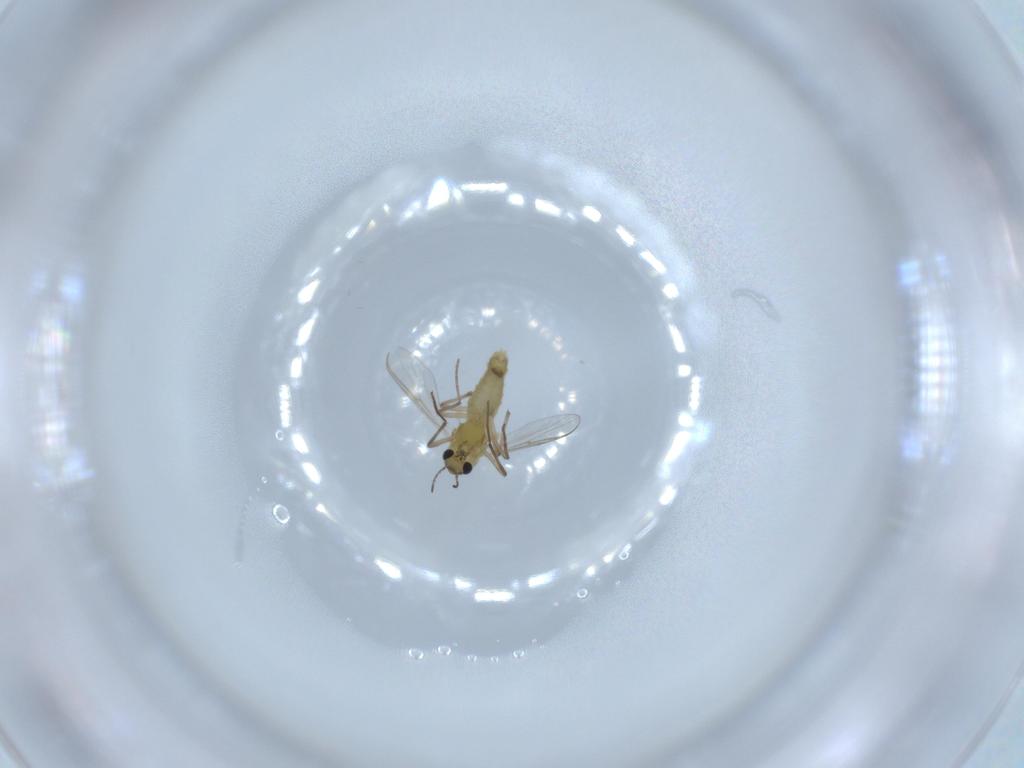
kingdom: Animalia
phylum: Arthropoda
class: Insecta
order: Diptera
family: Chironomidae
